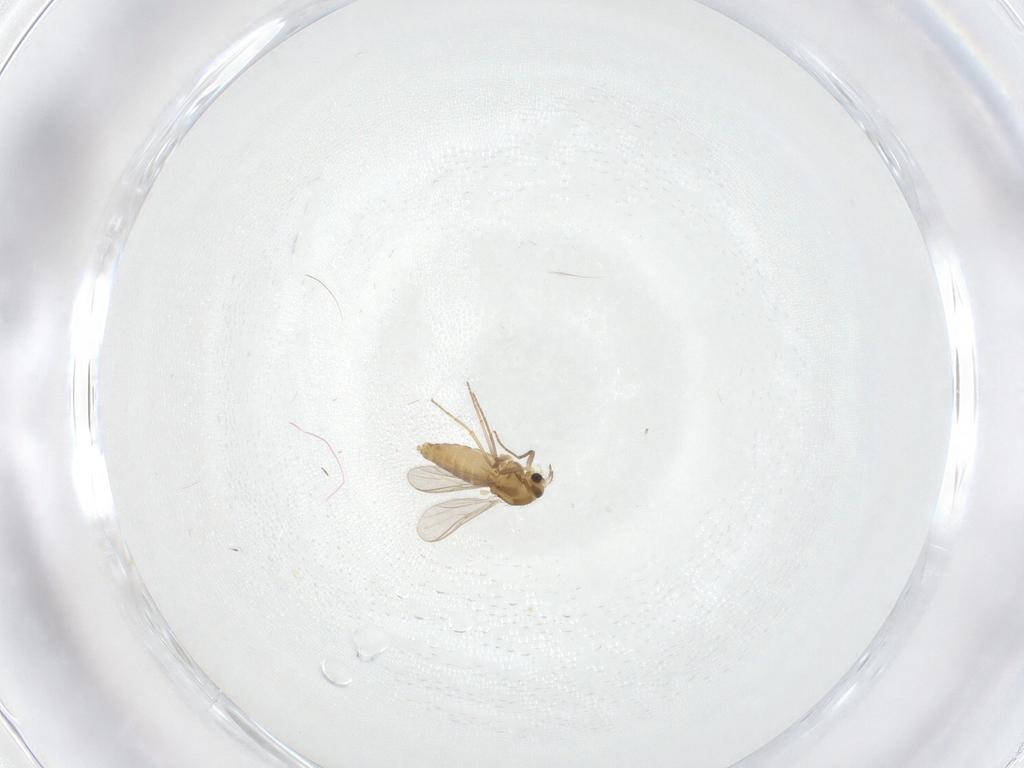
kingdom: Animalia
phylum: Arthropoda
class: Insecta
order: Diptera
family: Chironomidae
